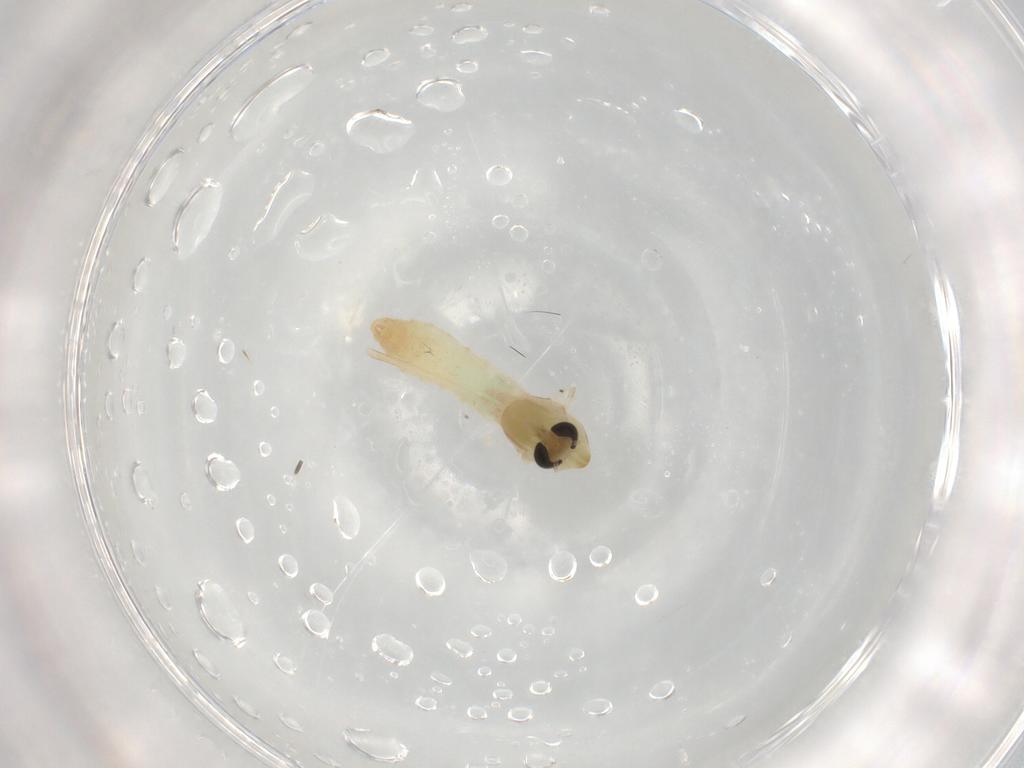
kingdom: Animalia
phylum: Arthropoda
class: Insecta
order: Diptera
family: Chironomidae
